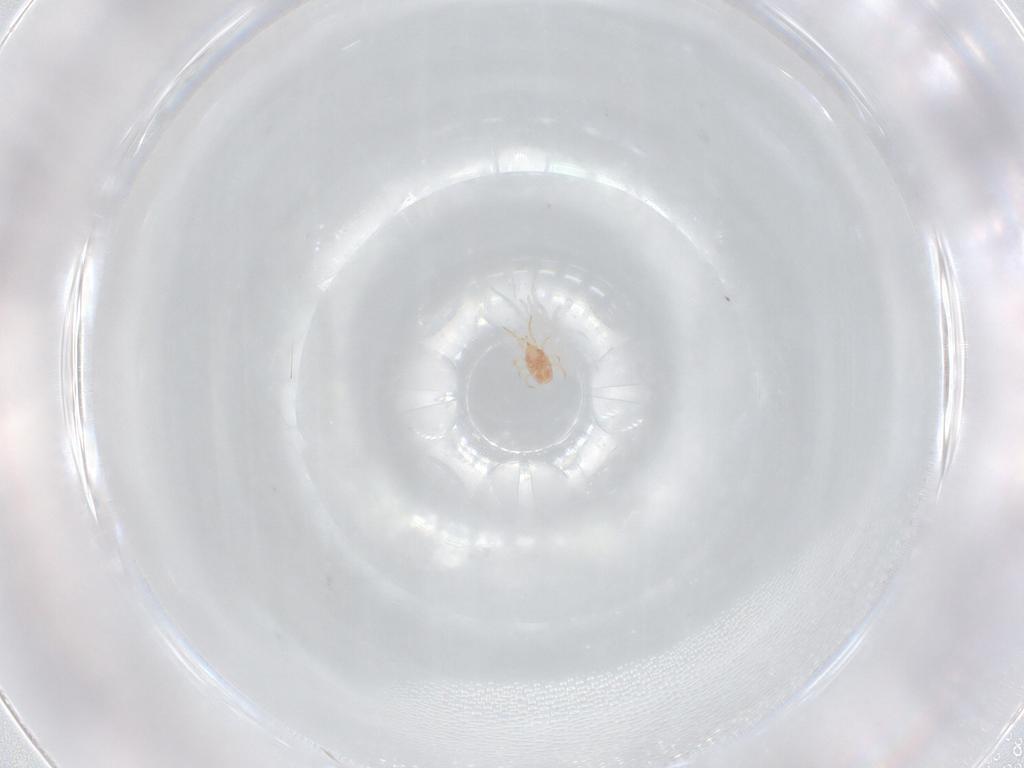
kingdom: Animalia
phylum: Arthropoda
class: Arachnida
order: Mesostigmata
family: Phytoseiidae
